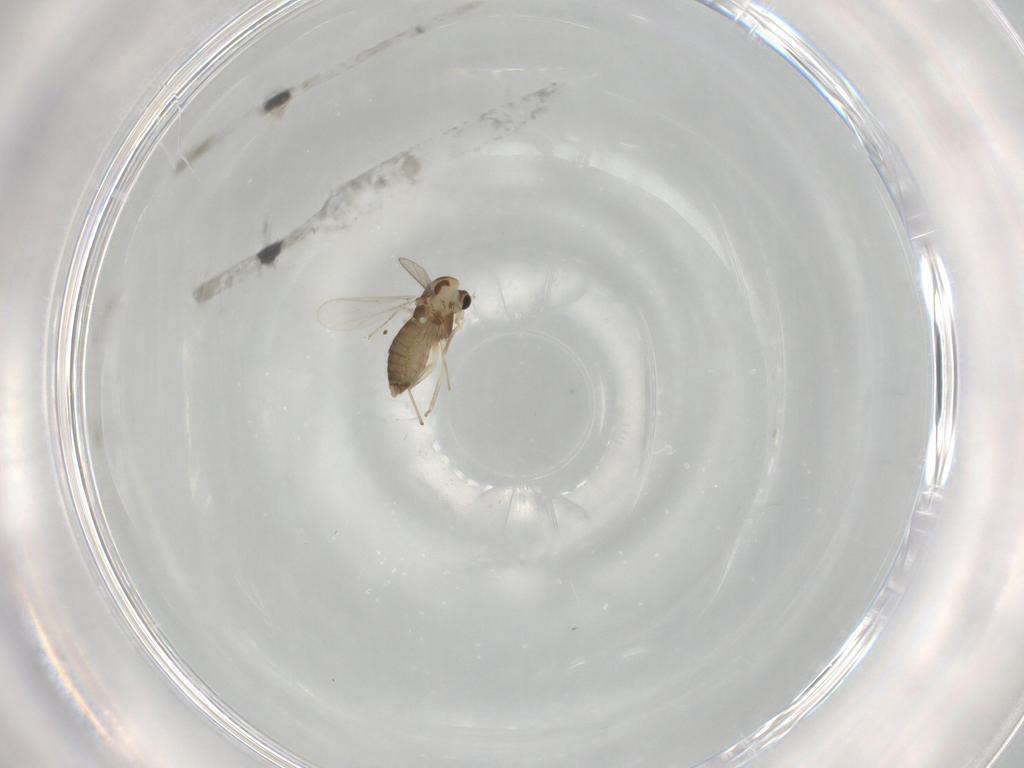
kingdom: Animalia
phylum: Arthropoda
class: Insecta
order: Diptera
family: Chironomidae
